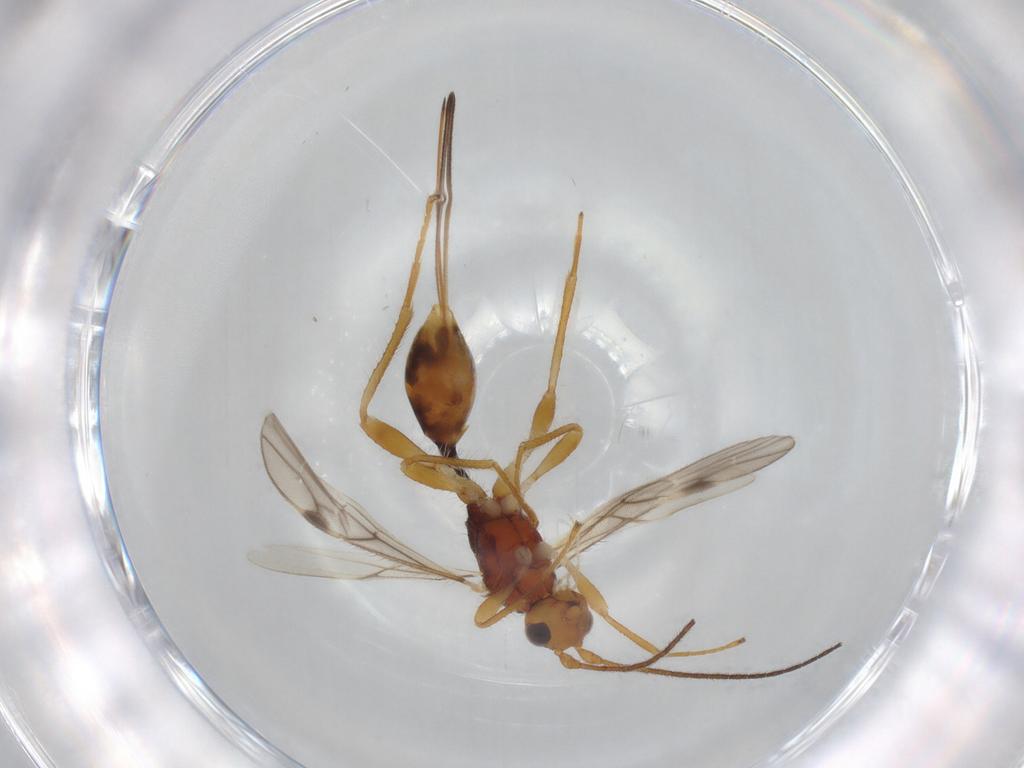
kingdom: Animalia
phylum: Arthropoda
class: Insecta
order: Hymenoptera
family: Braconidae
